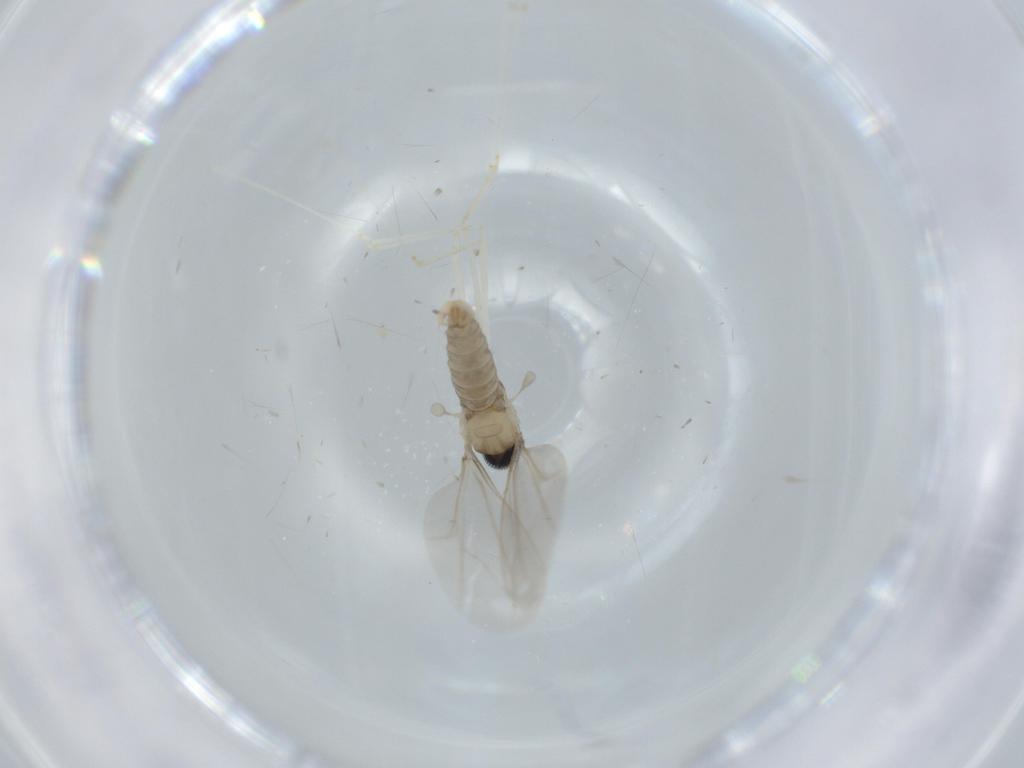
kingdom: Animalia
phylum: Arthropoda
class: Insecta
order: Diptera
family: Cecidomyiidae
